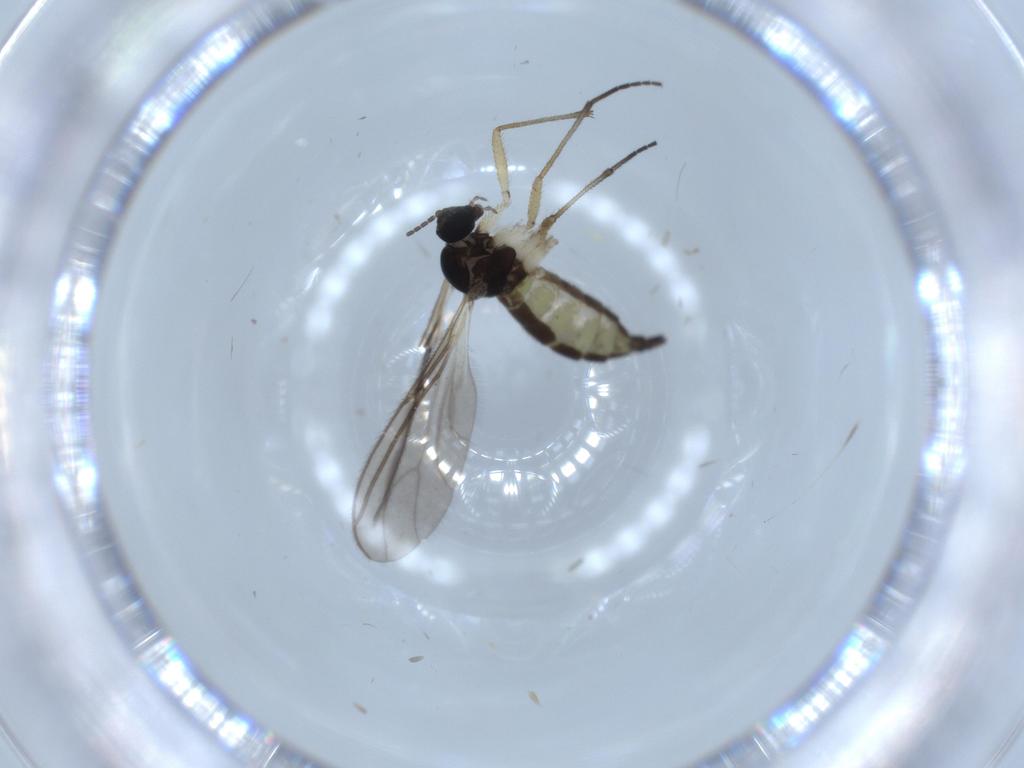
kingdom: Animalia
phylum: Arthropoda
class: Insecta
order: Diptera
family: Sciaridae
